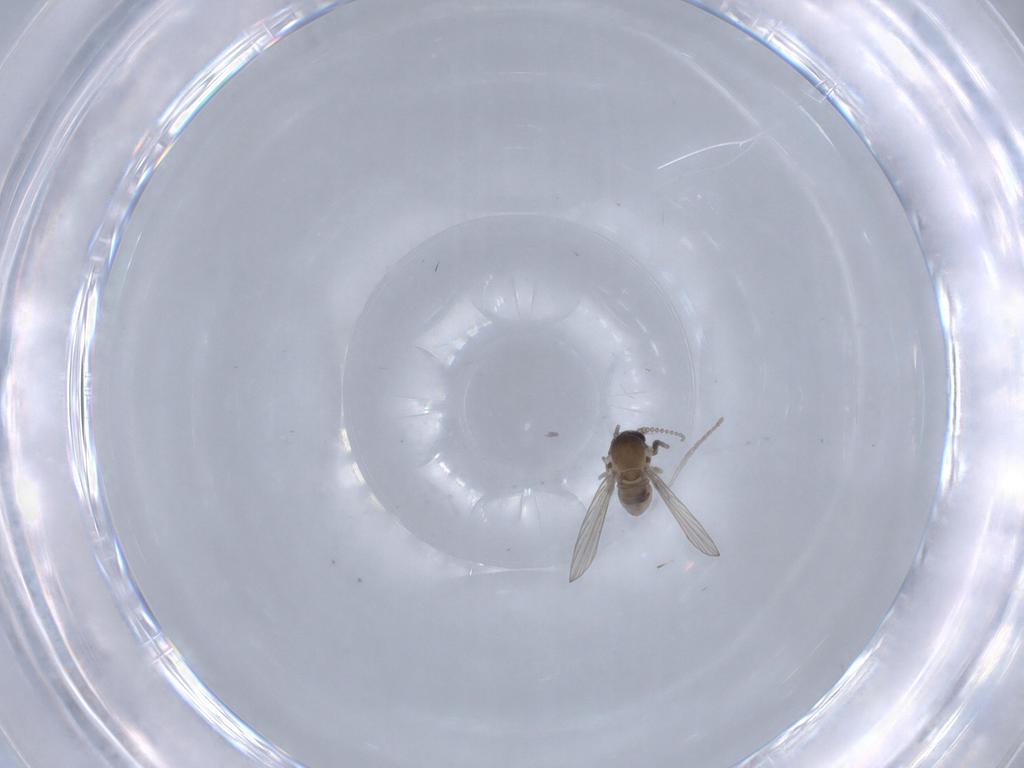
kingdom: Animalia
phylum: Arthropoda
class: Insecta
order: Diptera
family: Psychodidae
